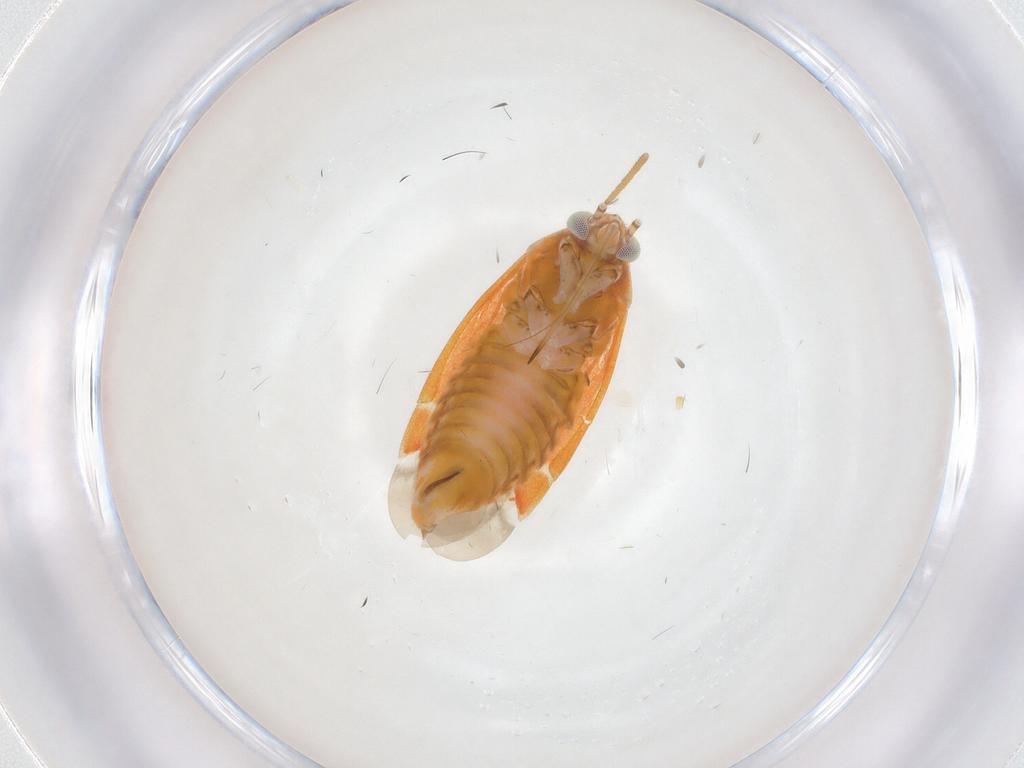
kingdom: Animalia
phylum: Arthropoda
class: Insecta
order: Hemiptera
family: Miridae
